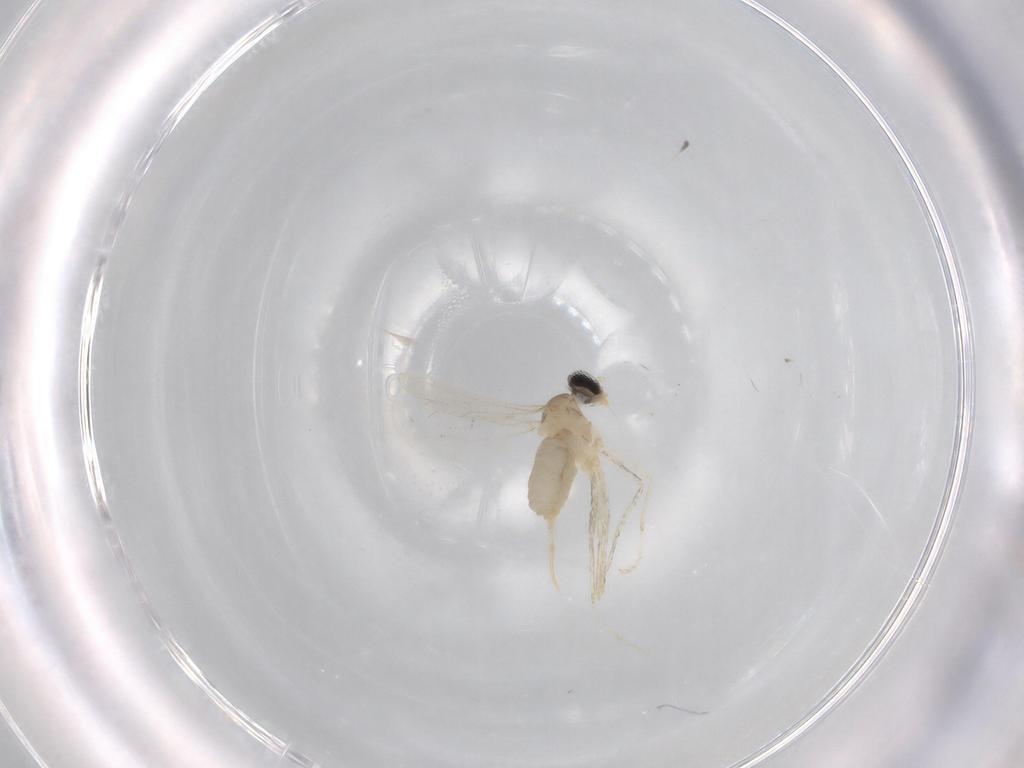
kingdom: Animalia
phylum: Arthropoda
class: Insecta
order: Diptera
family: Cecidomyiidae
